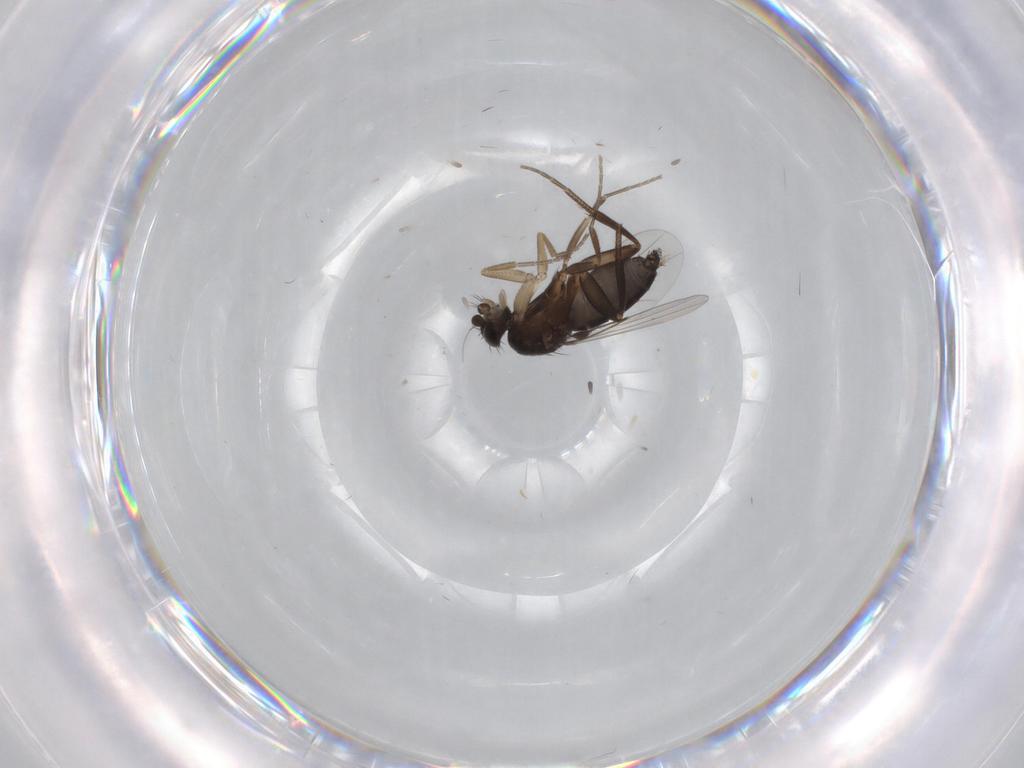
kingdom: Animalia
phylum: Arthropoda
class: Insecta
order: Diptera
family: Phoridae
